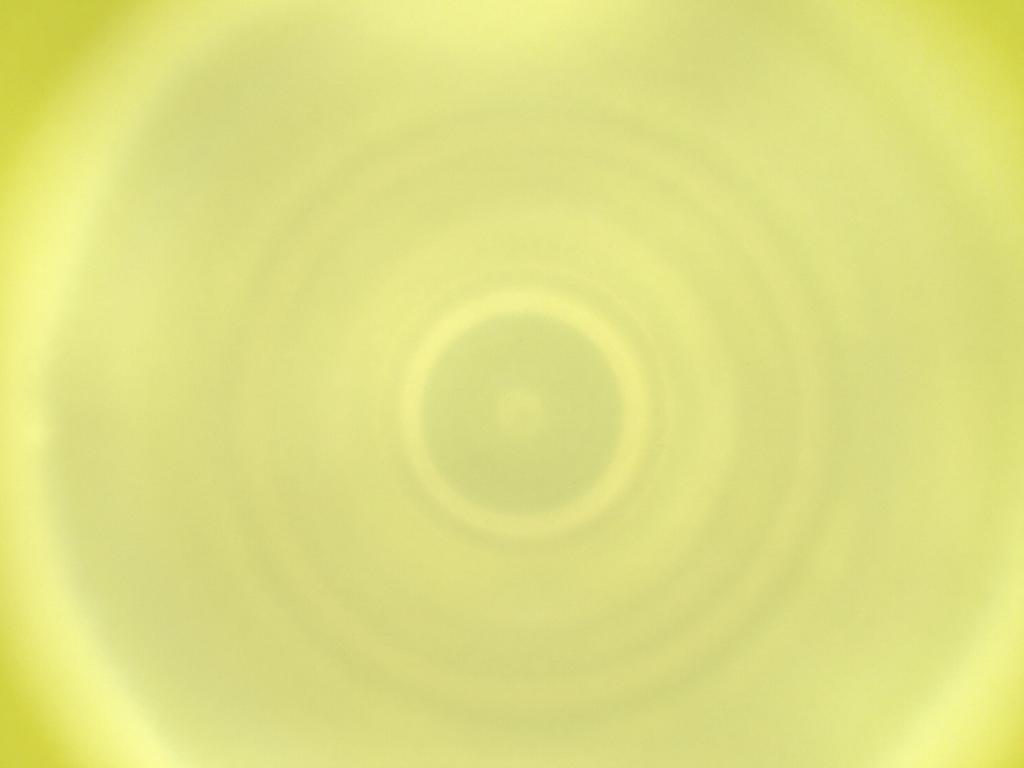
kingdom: Animalia
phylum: Arthropoda
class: Insecta
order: Diptera
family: Cecidomyiidae
